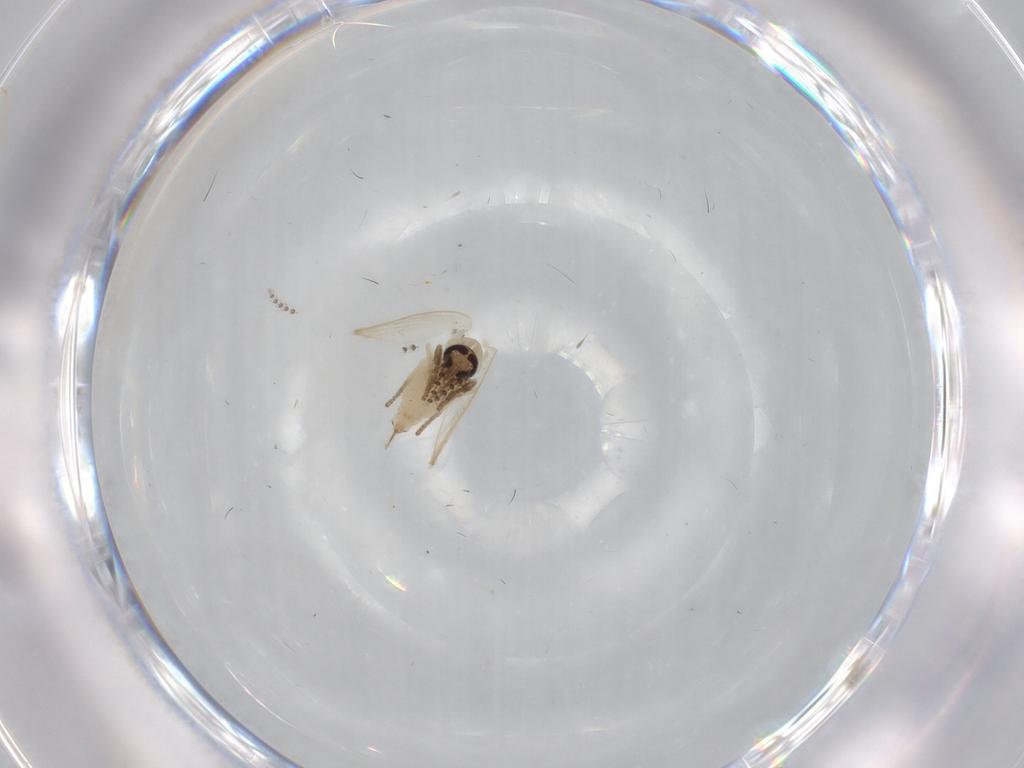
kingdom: Animalia
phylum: Arthropoda
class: Insecta
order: Diptera
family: Psychodidae
